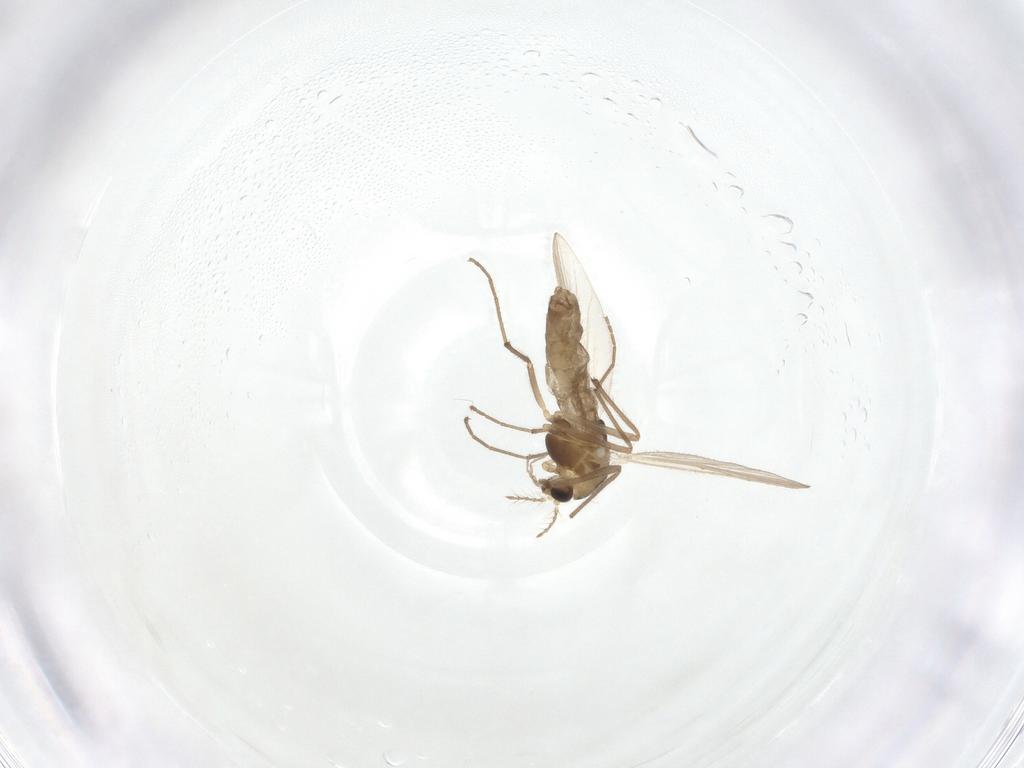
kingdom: Animalia
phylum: Arthropoda
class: Insecta
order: Diptera
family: Chironomidae
